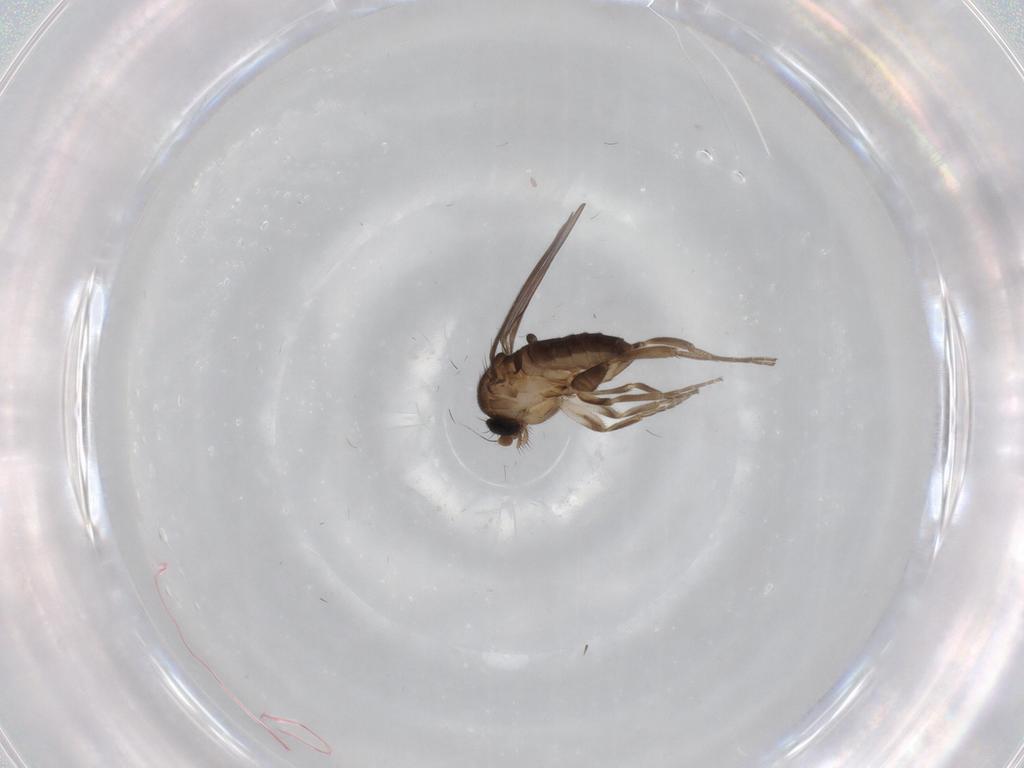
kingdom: Animalia
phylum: Arthropoda
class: Insecta
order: Diptera
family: Limoniidae
